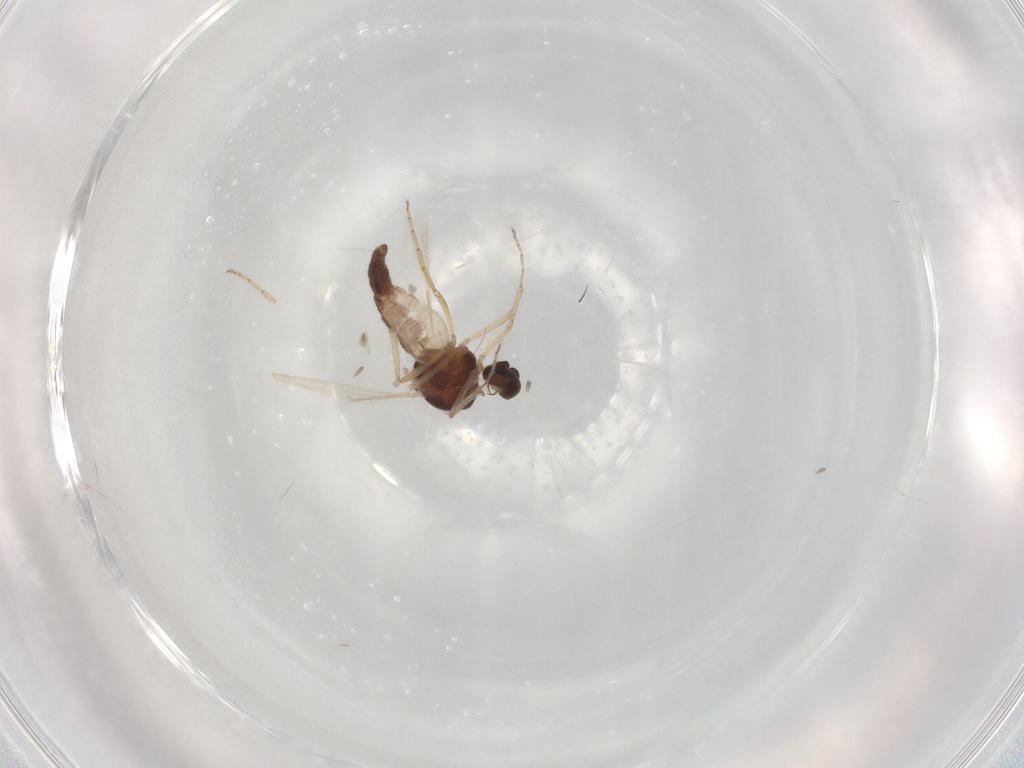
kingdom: Animalia
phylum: Arthropoda
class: Insecta
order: Diptera
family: Ceratopogonidae
